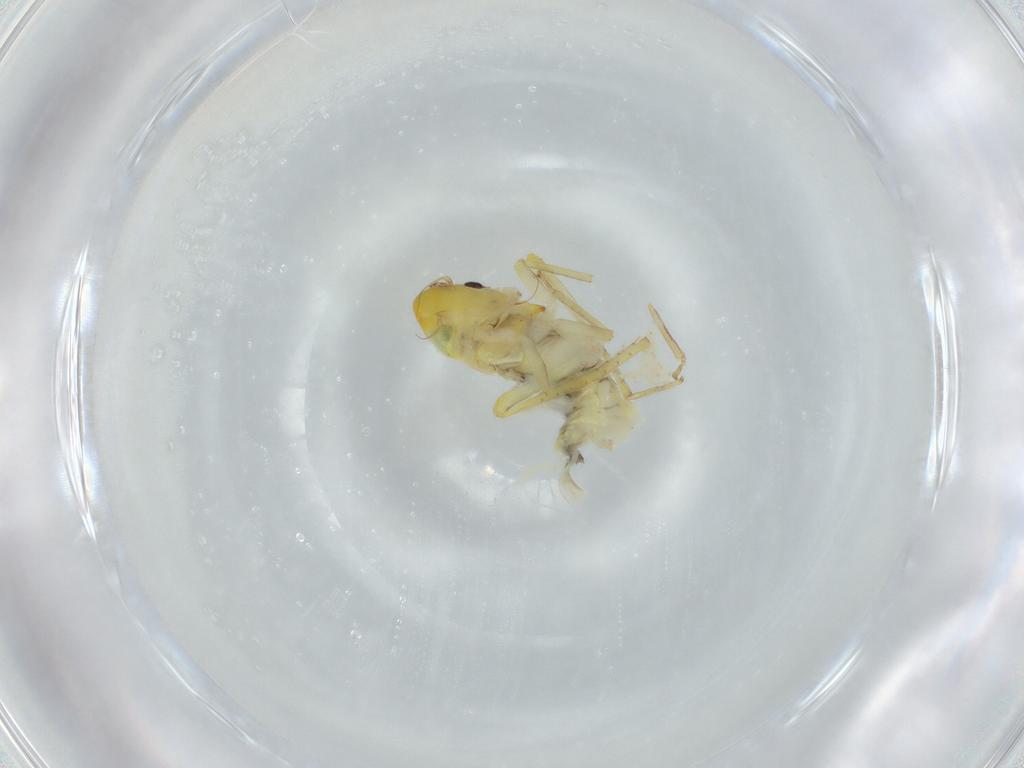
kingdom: Animalia
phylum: Arthropoda
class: Insecta
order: Hemiptera
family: Cicadellidae
